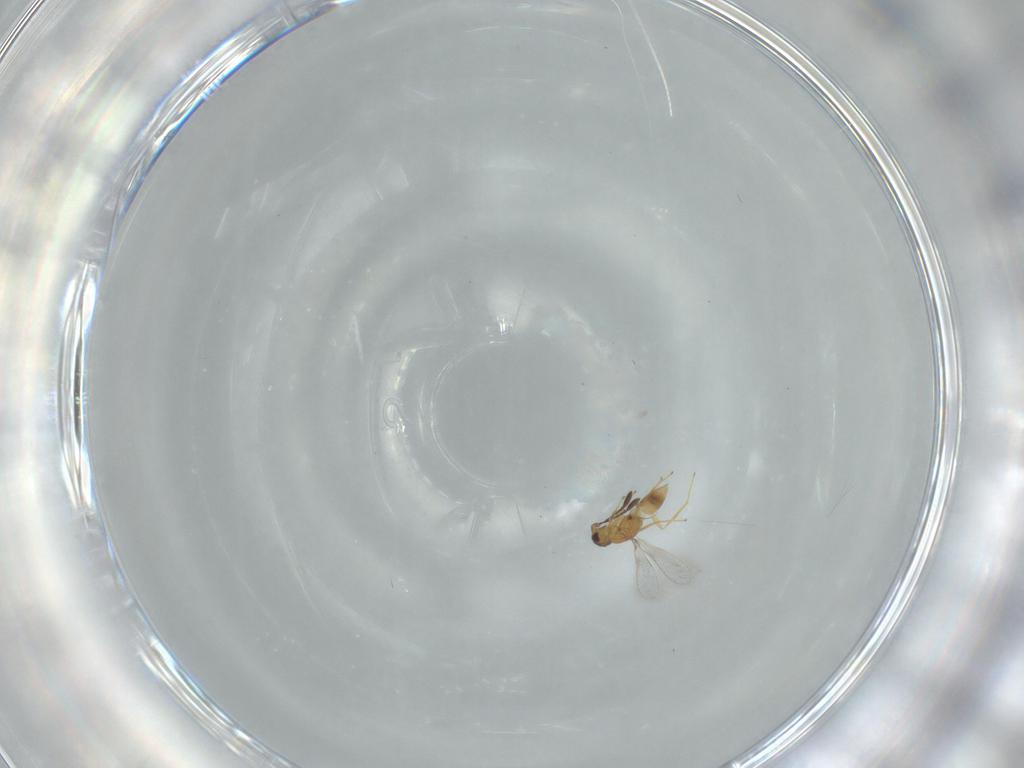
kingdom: Animalia
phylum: Arthropoda
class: Insecta
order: Hymenoptera
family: Mymaridae
